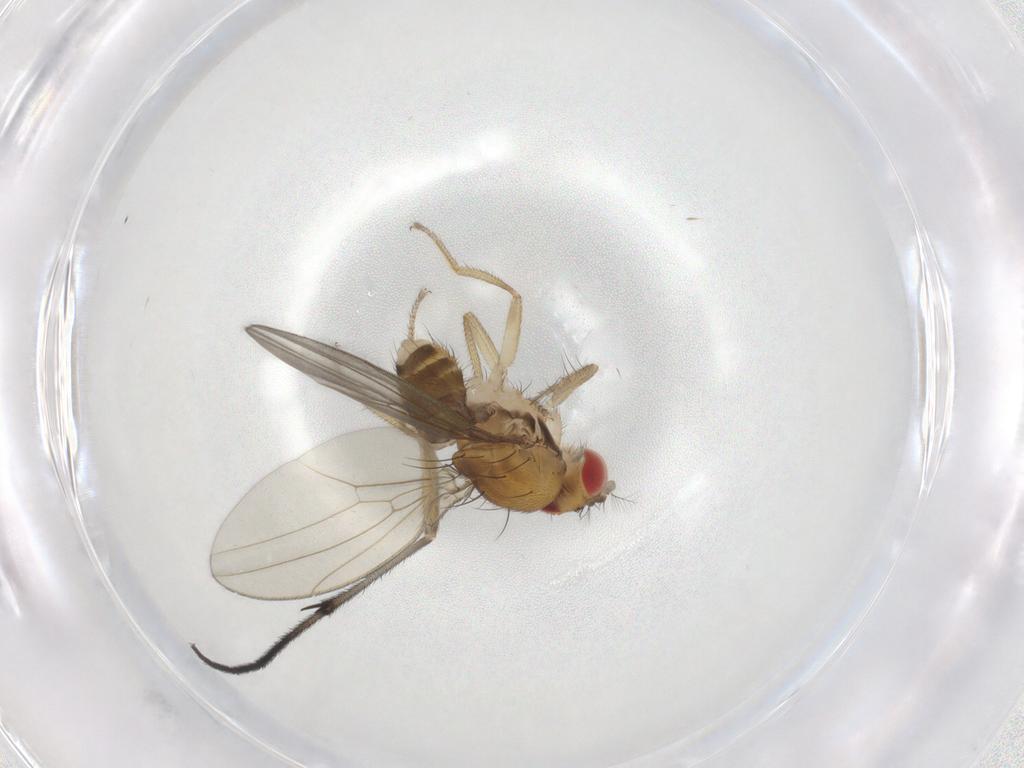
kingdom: Animalia
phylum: Arthropoda
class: Insecta
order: Diptera
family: Drosophilidae
